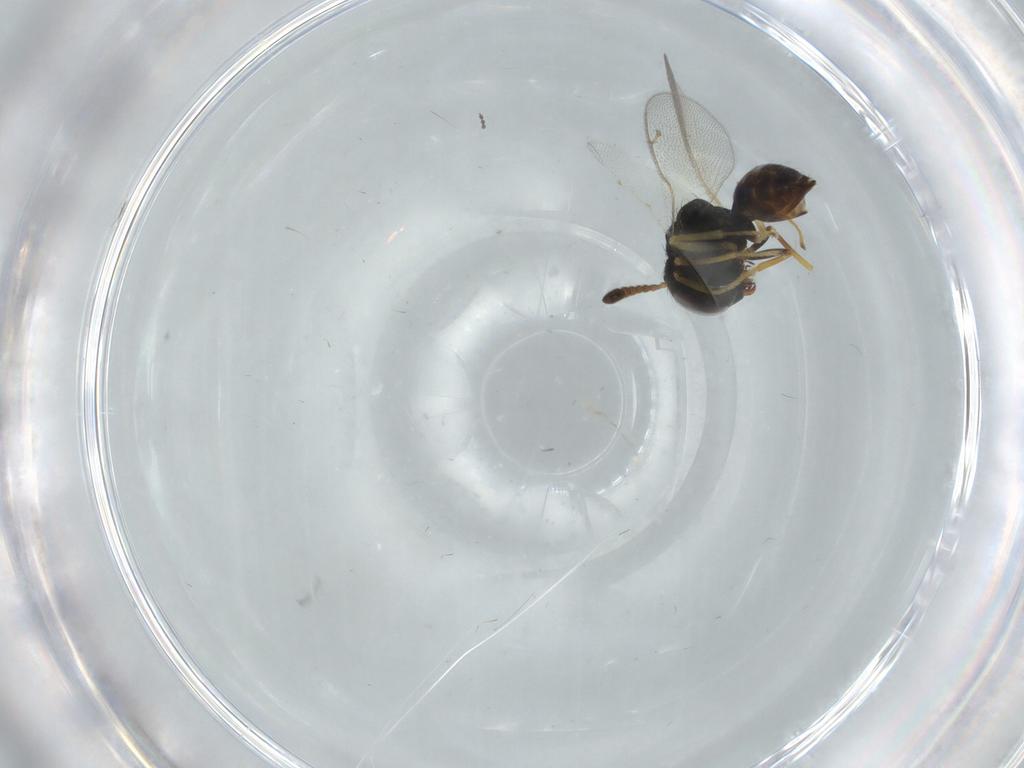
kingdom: Animalia
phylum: Arthropoda
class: Insecta
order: Hymenoptera
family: Pteromalidae
